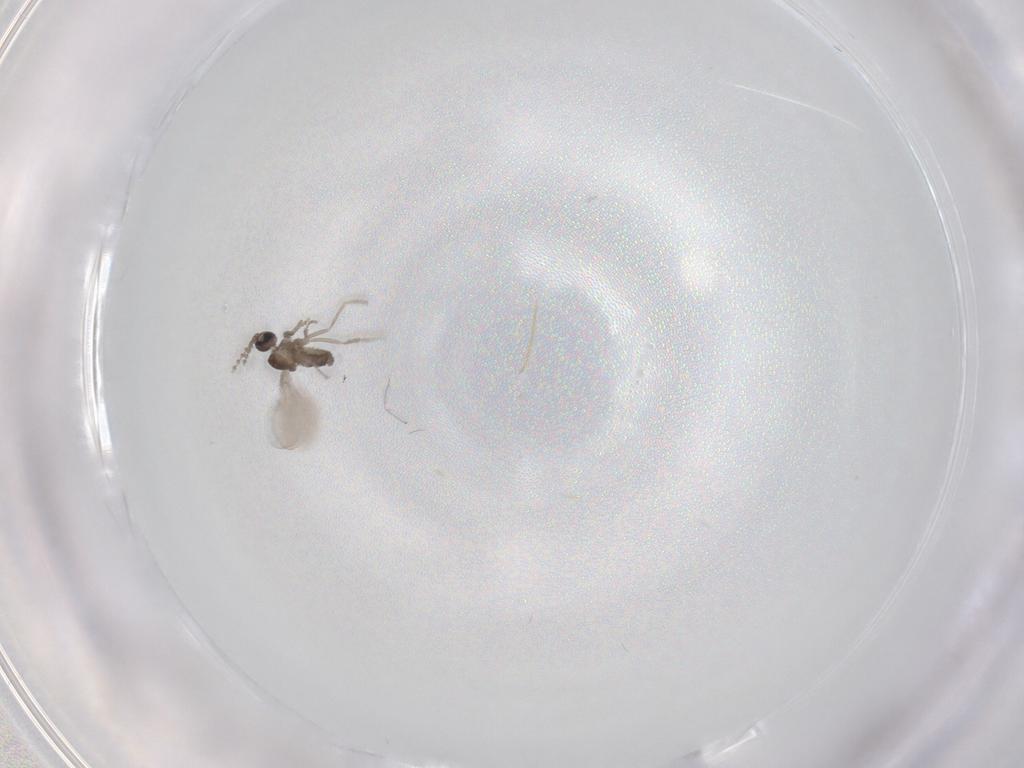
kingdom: Animalia
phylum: Arthropoda
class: Insecta
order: Diptera
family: Cecidomyiidae
